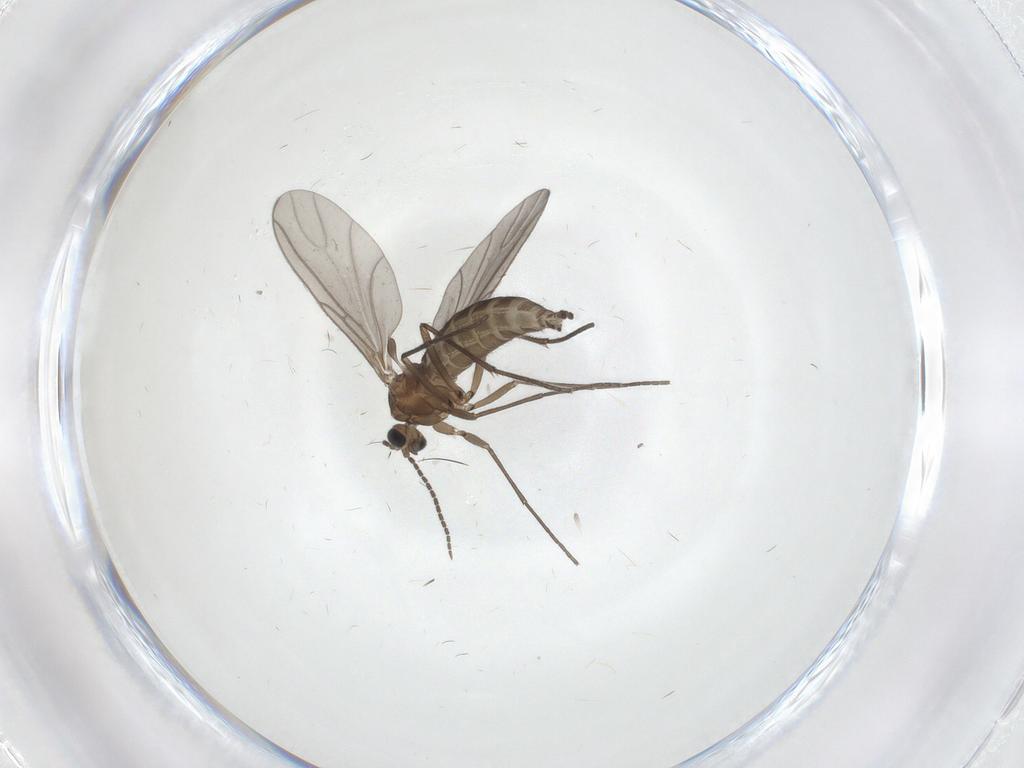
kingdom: Animalia
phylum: Arthropoda
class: Insecta
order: Diptera
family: Sciaridae
